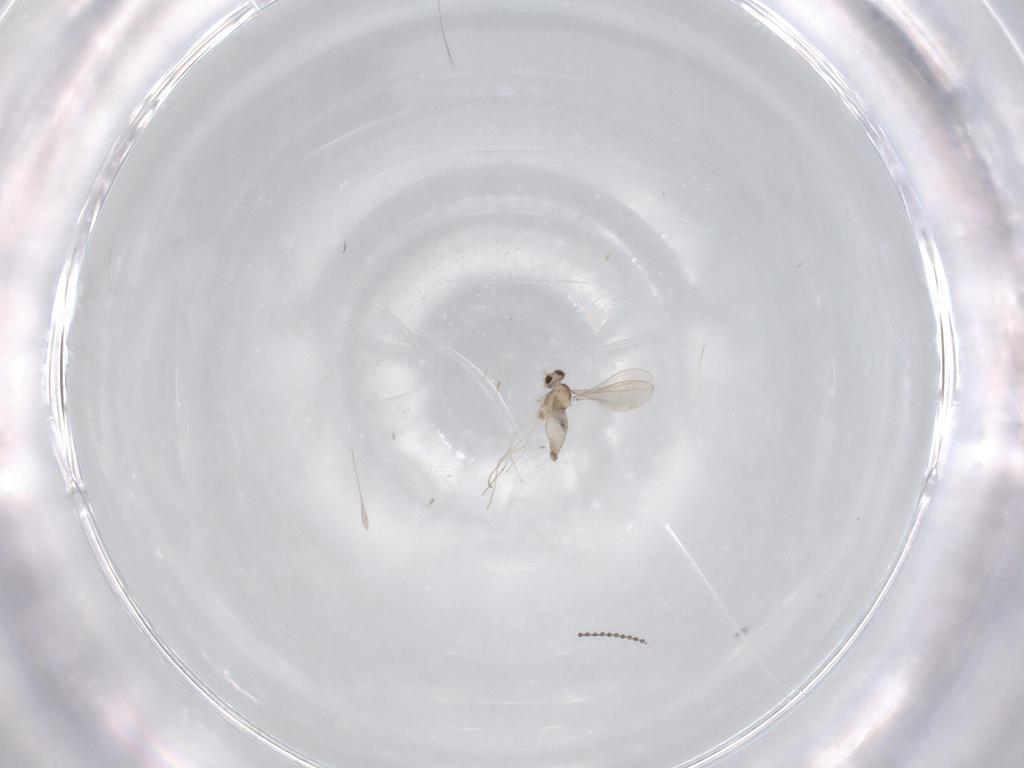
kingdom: Animalia
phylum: Arthropoda
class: Insecta
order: Diptera
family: Cecidomyiidae
